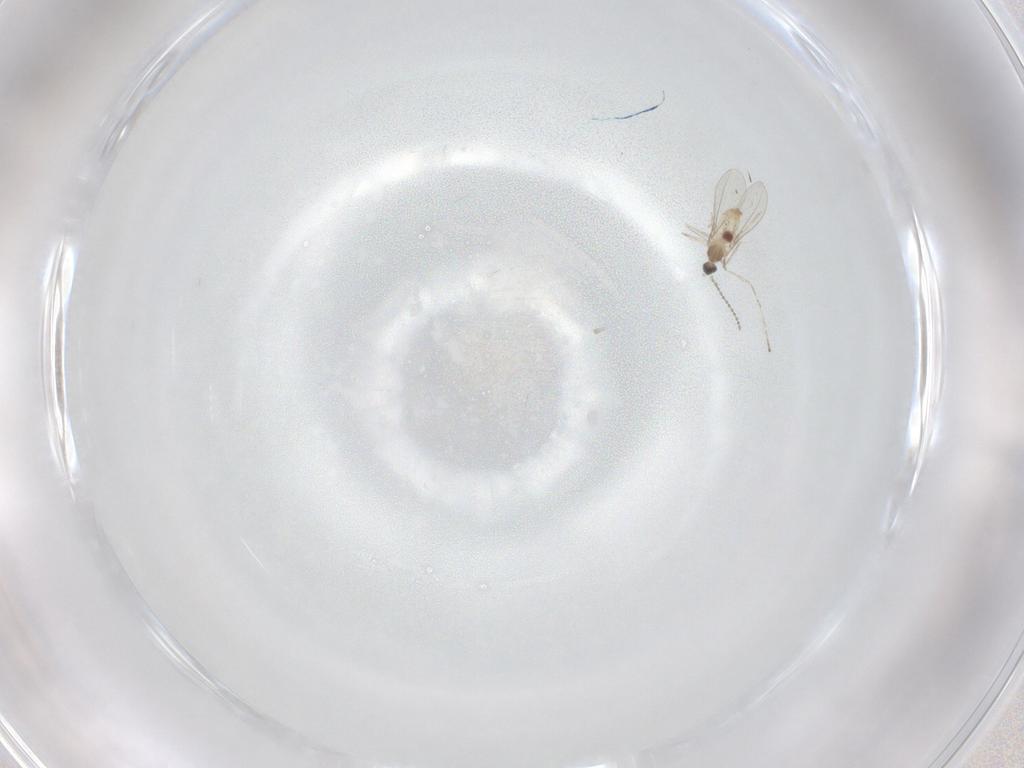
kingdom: Animalia
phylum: Arthropoda
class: Insecta
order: Diptera
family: Cecidomyiidae
